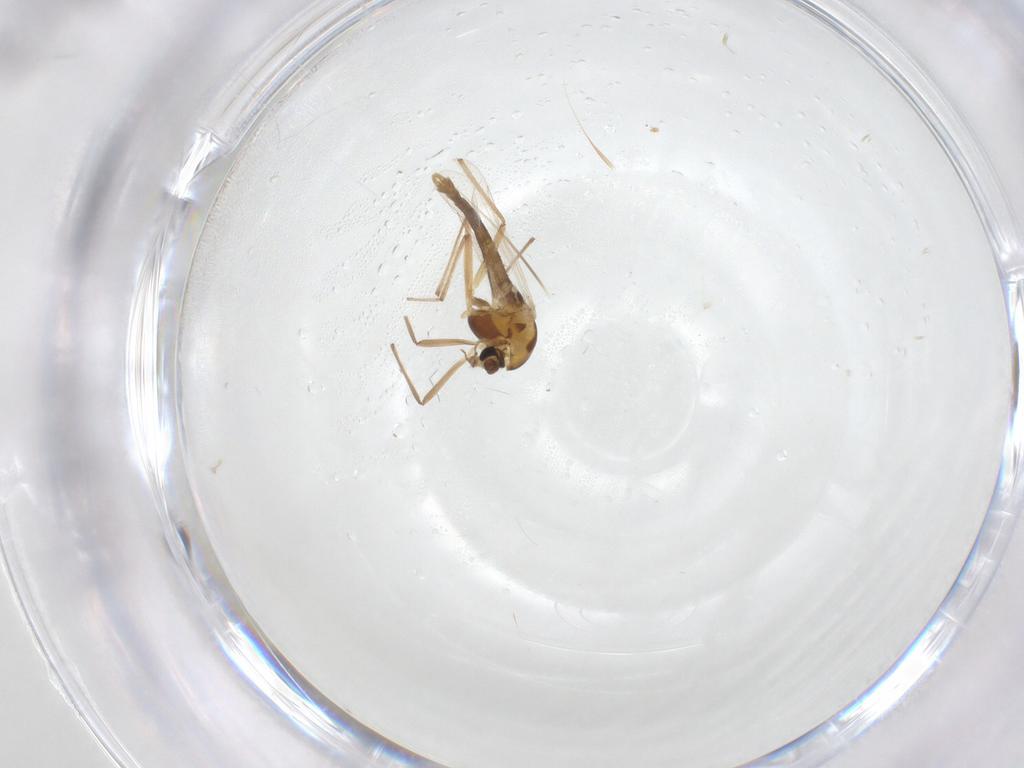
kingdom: Animalia
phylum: Arthropoda
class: Insecta
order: Diptera
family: Chironomidae
